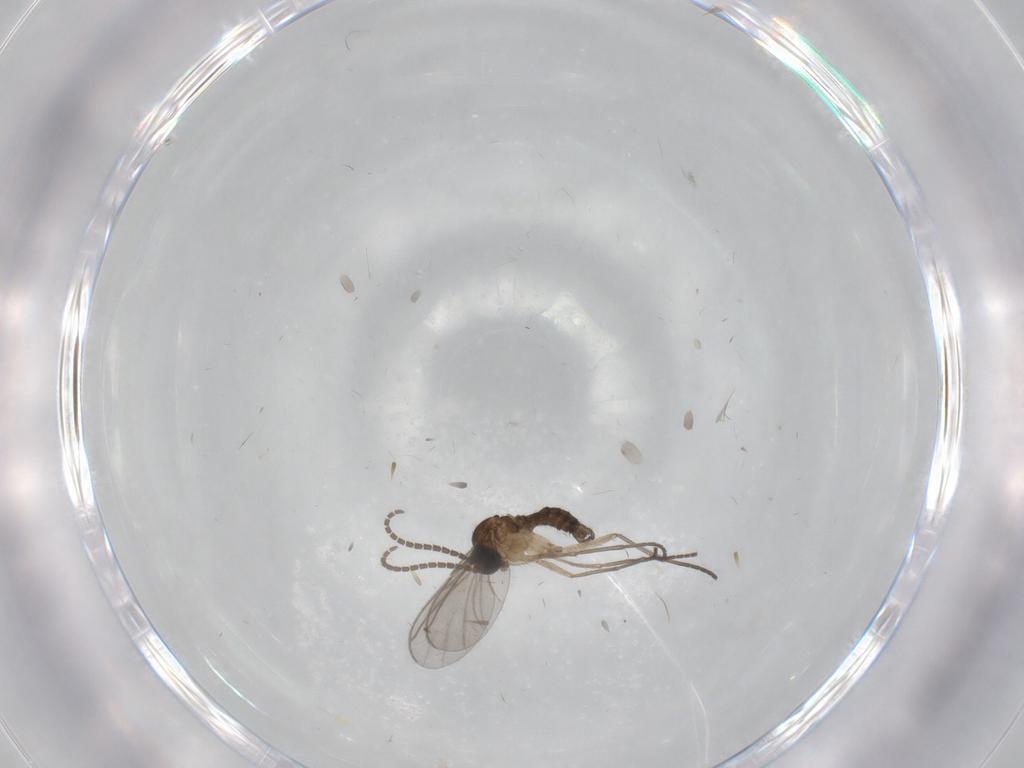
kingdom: Animalia
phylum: Arthropoda
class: Insecta
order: Diptera
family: Sciaridae
